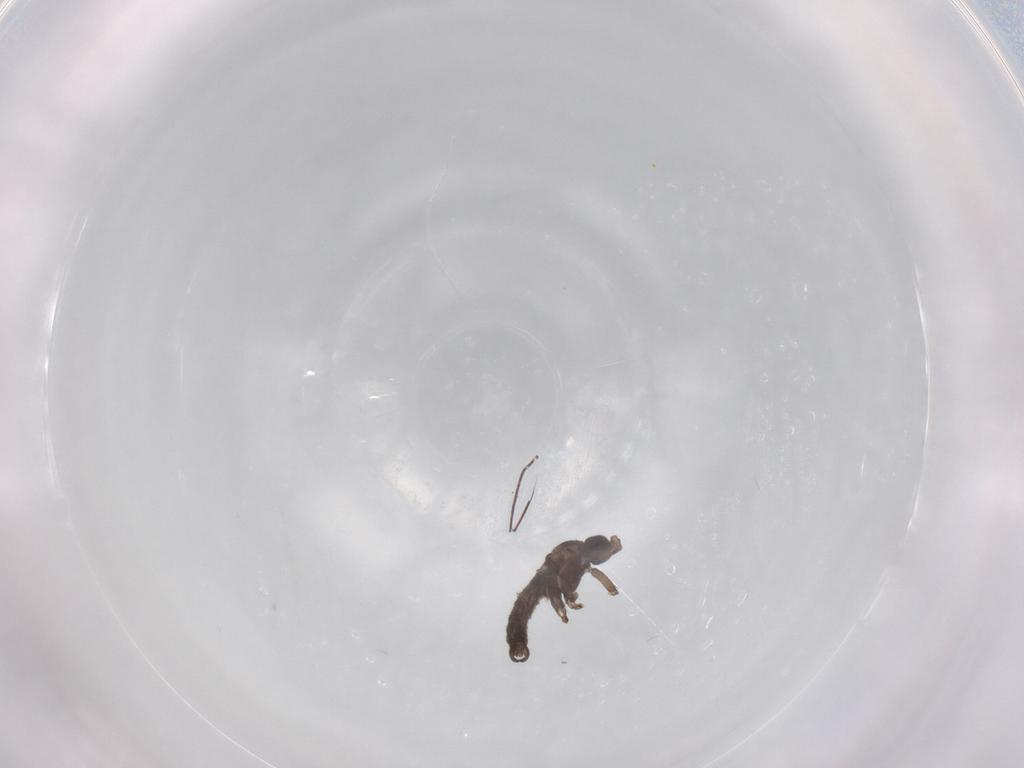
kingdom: Animalia
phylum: Arthropoda
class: Insecta
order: Diptera
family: Sciaridae
